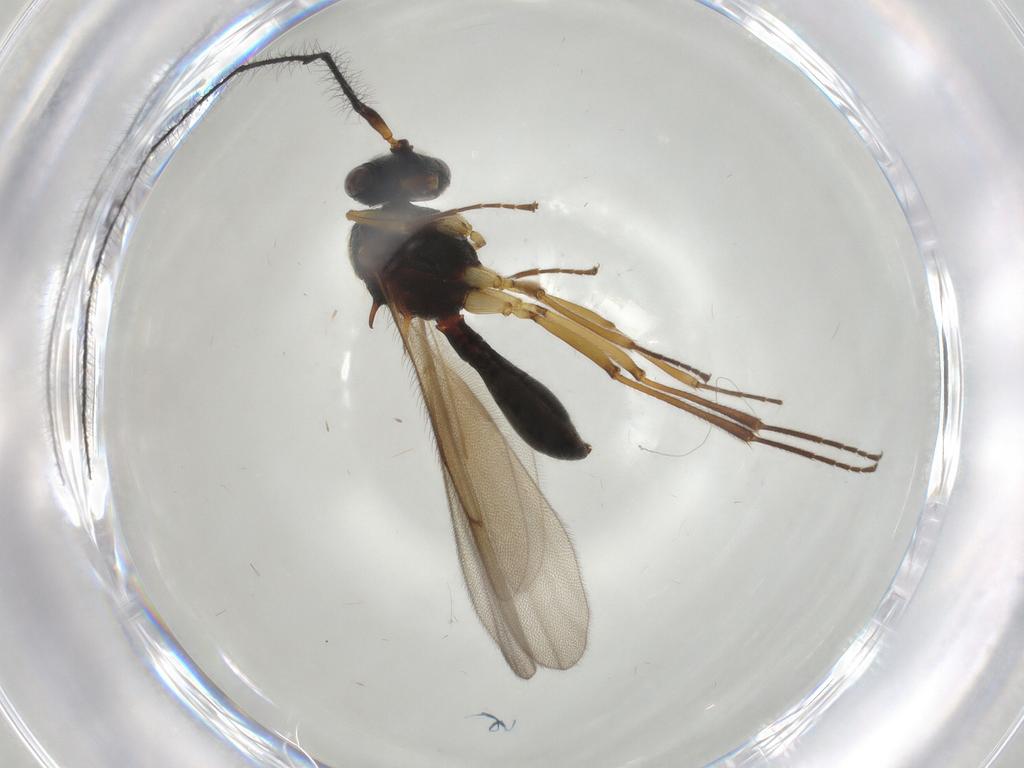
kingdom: Animalia
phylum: Arthropoda
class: Insecta
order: Hymenoptera
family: Scelionidae
